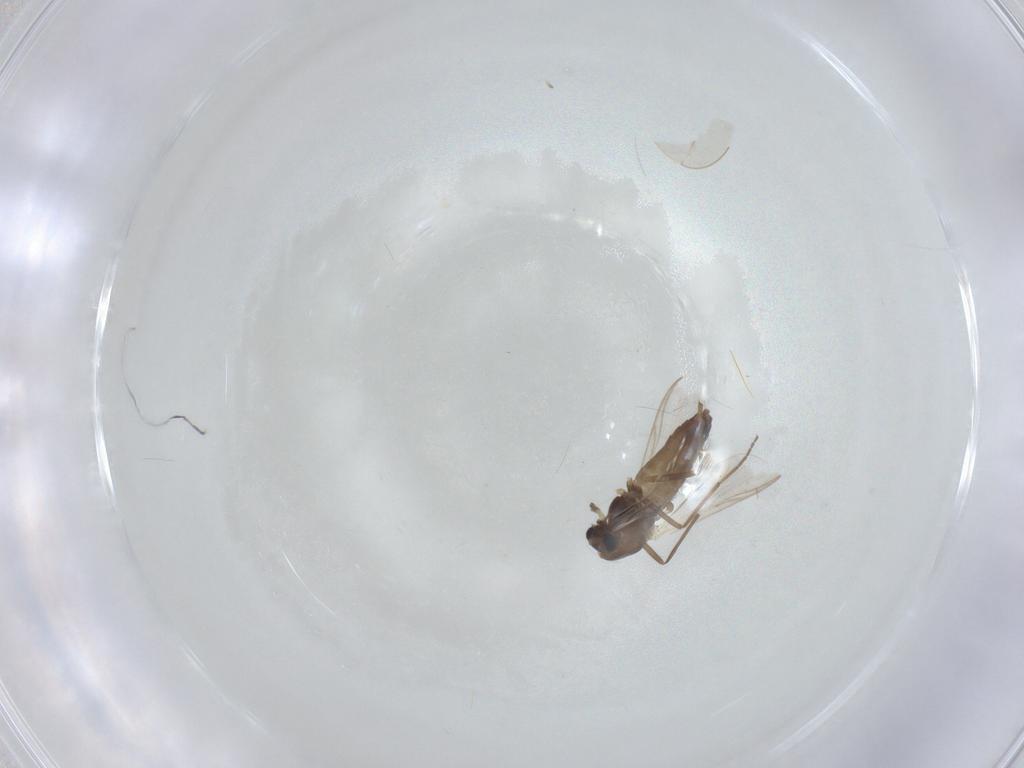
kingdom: Animalia
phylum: Arthropoda
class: Insecta
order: Diptera
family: Chironomidae
